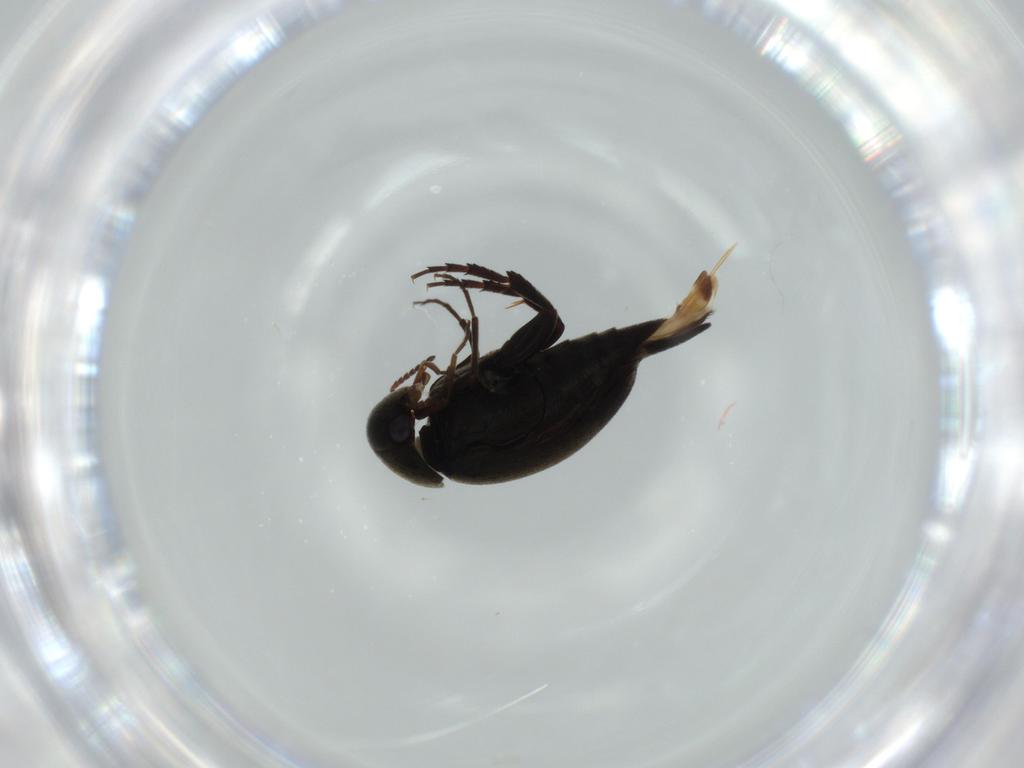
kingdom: Animalia
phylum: Arthropoda
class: Insecta
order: Coleoptera
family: Mordellidae
